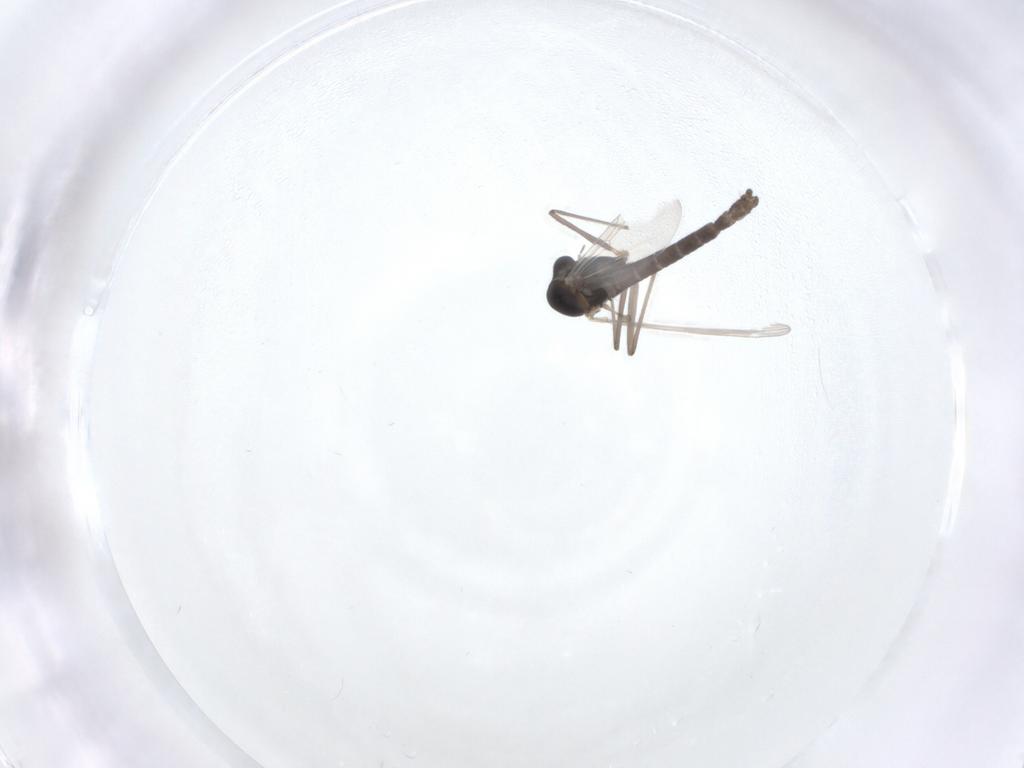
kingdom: Animalia
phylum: Arthropoda
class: Insecta
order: Diptera
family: Chironomidae
